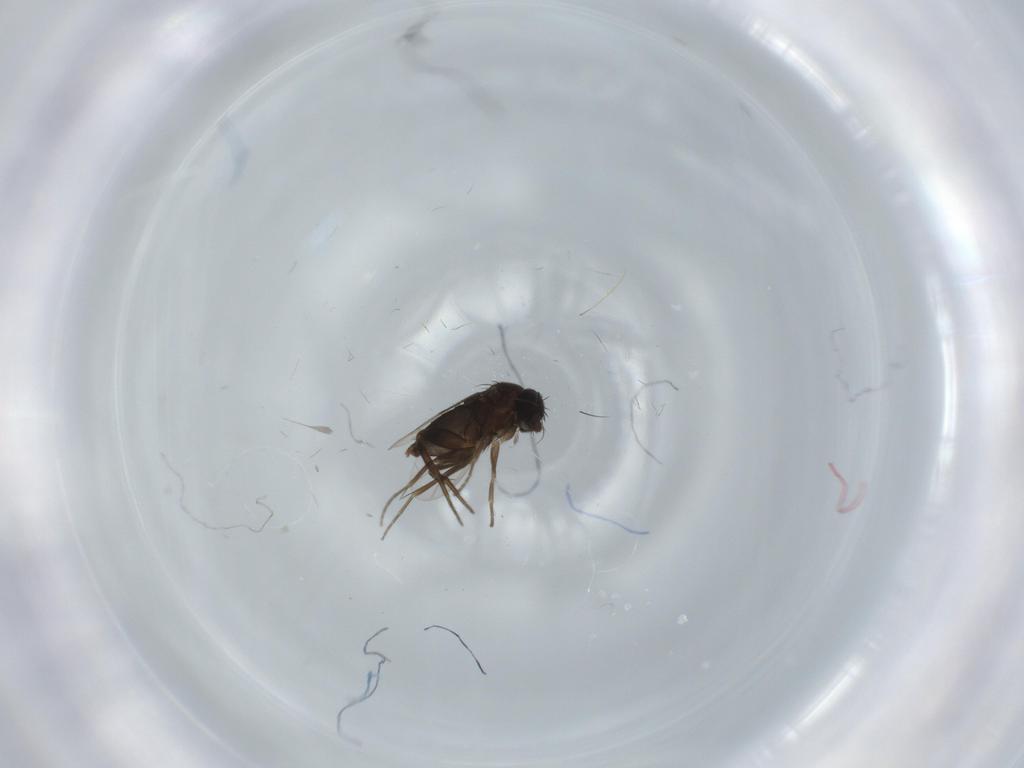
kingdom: Animalia
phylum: Arthropoda
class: Insecta
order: Diptera
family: Phoridae
